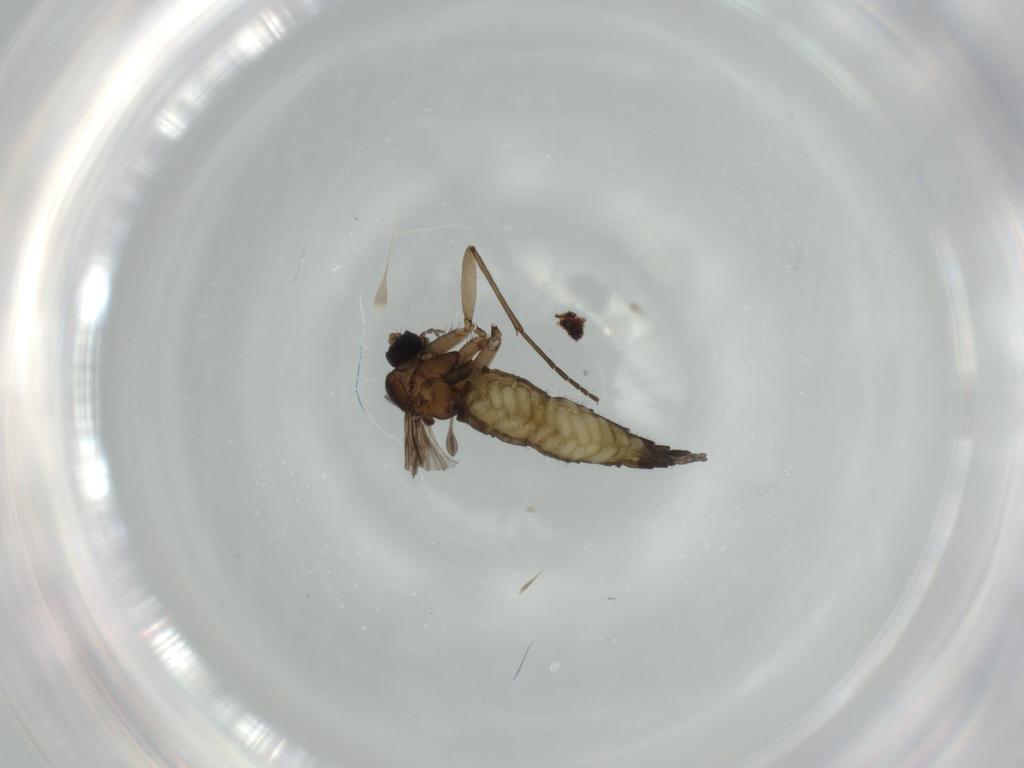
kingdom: Animalia
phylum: Arthropoda
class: Insecta
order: Diptera
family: Sciaridae
